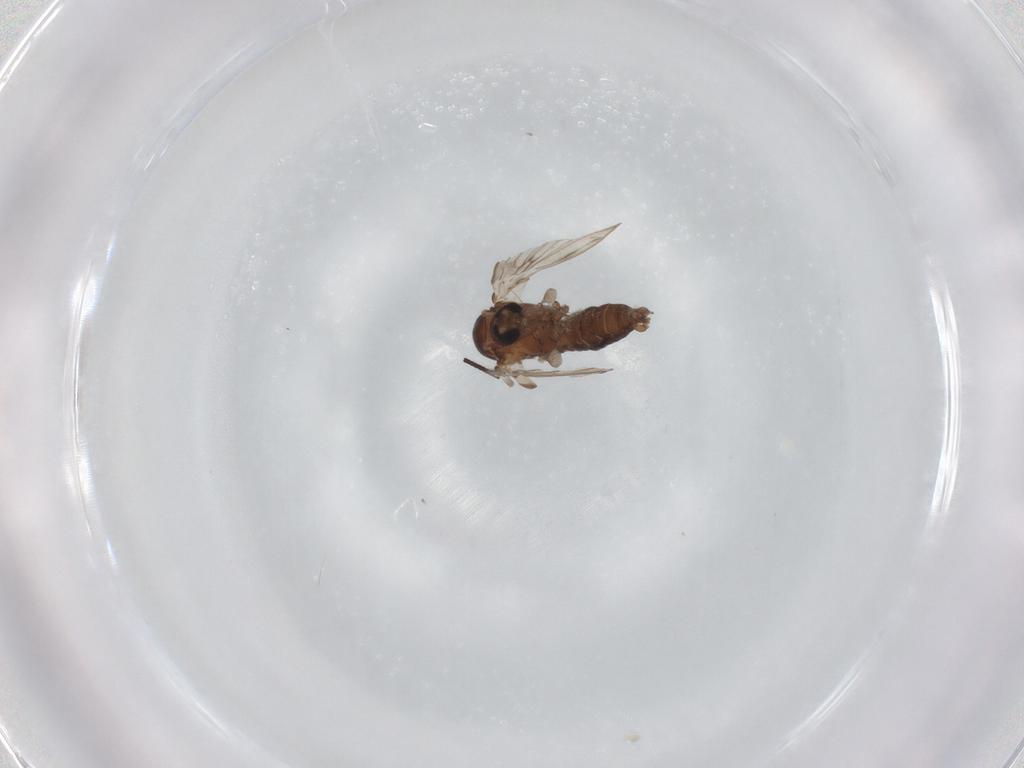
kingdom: Animalia
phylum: Arthropoda
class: Insecta
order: Diptera
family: Psychodidae
